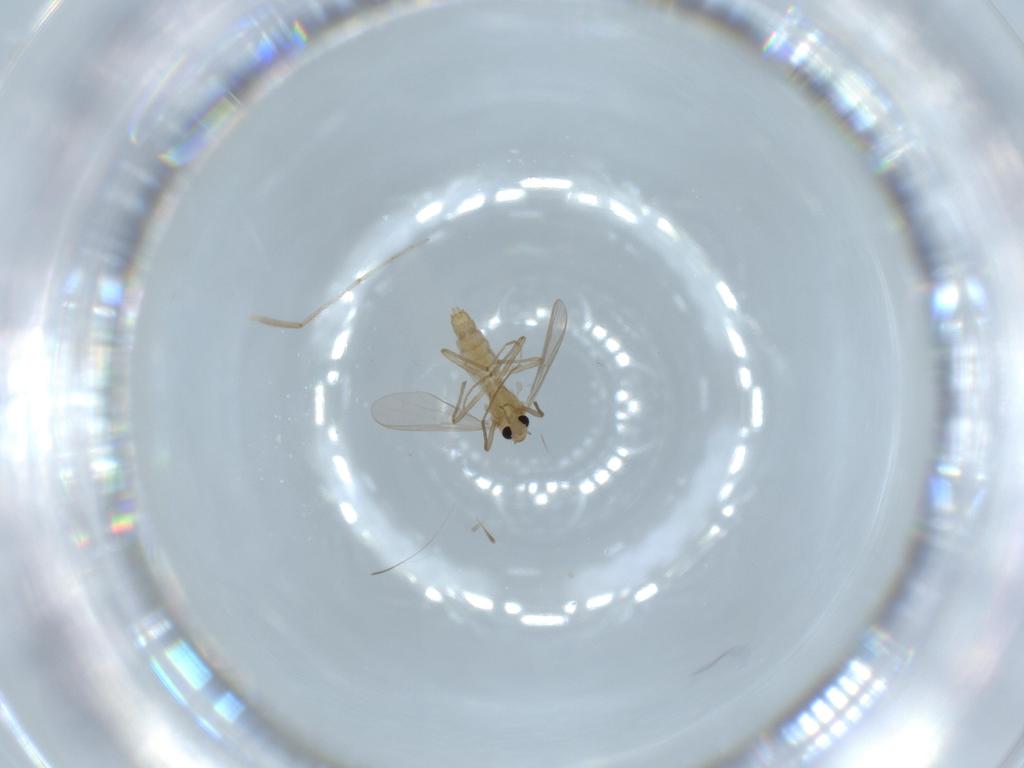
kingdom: Animalia
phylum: Arthropoda
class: Insecta
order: Diptera
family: Chironomidae
